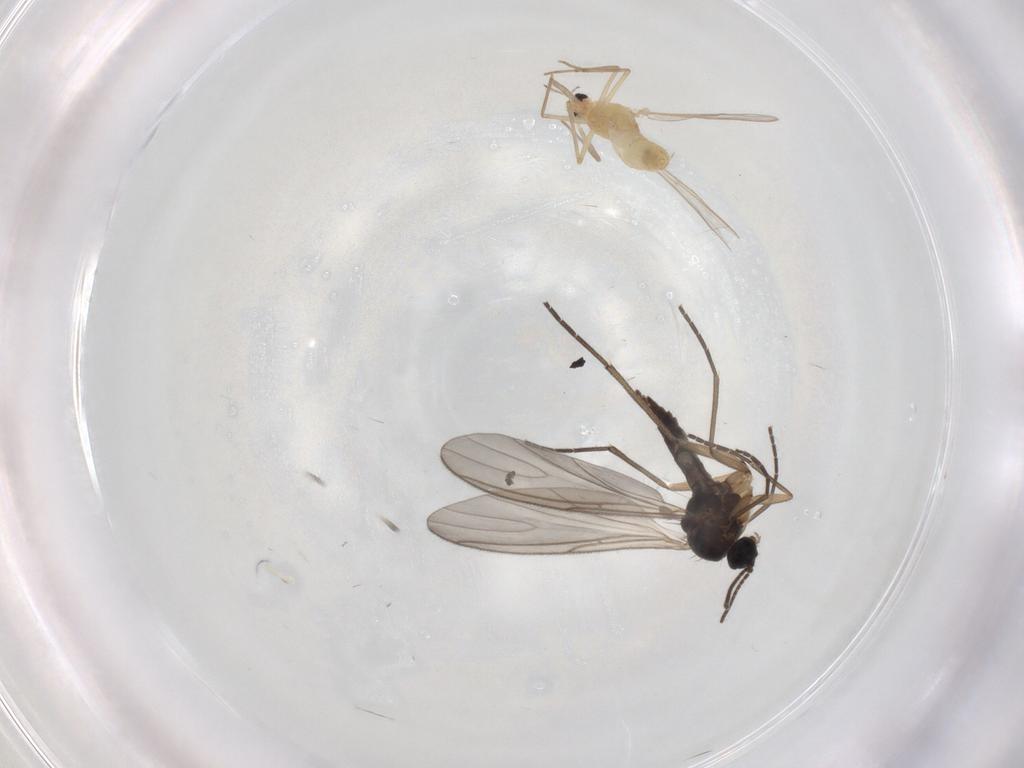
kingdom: Animalia
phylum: Arthropoda
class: Insecta
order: Diptera
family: Chironomidae
